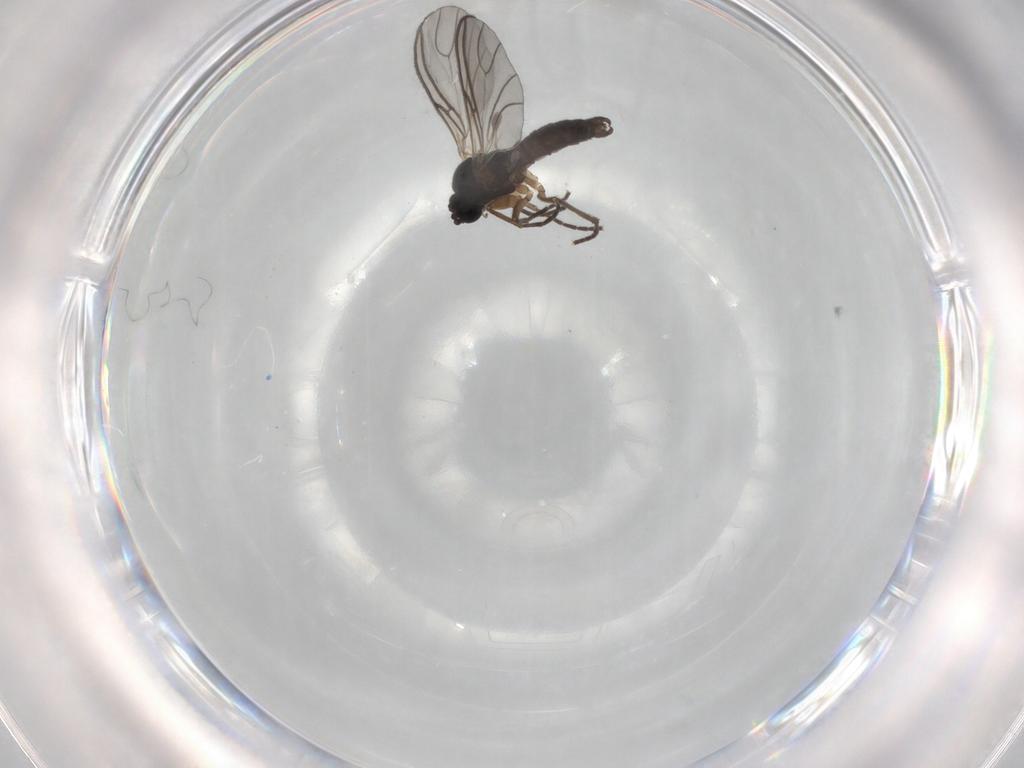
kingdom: Animalia
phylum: Arthropoda
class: Insecta
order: Diptera
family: Sciaridae
